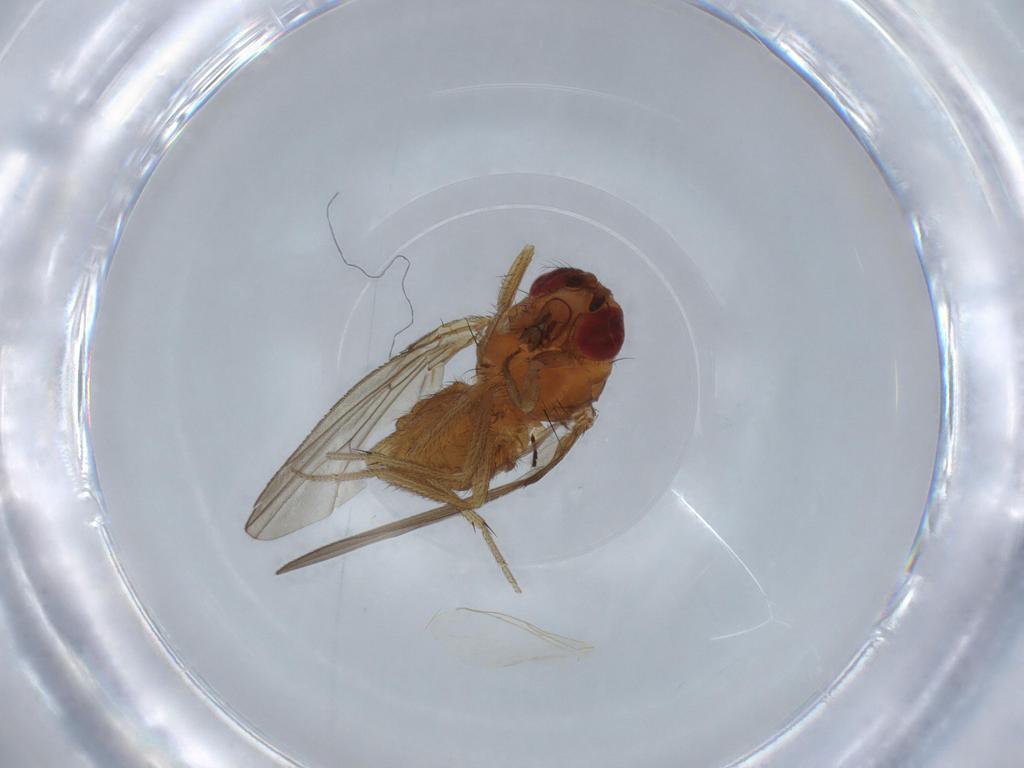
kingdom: Animalia
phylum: Arthropoda
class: Insecta
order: Diptera
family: Drosophilidae
